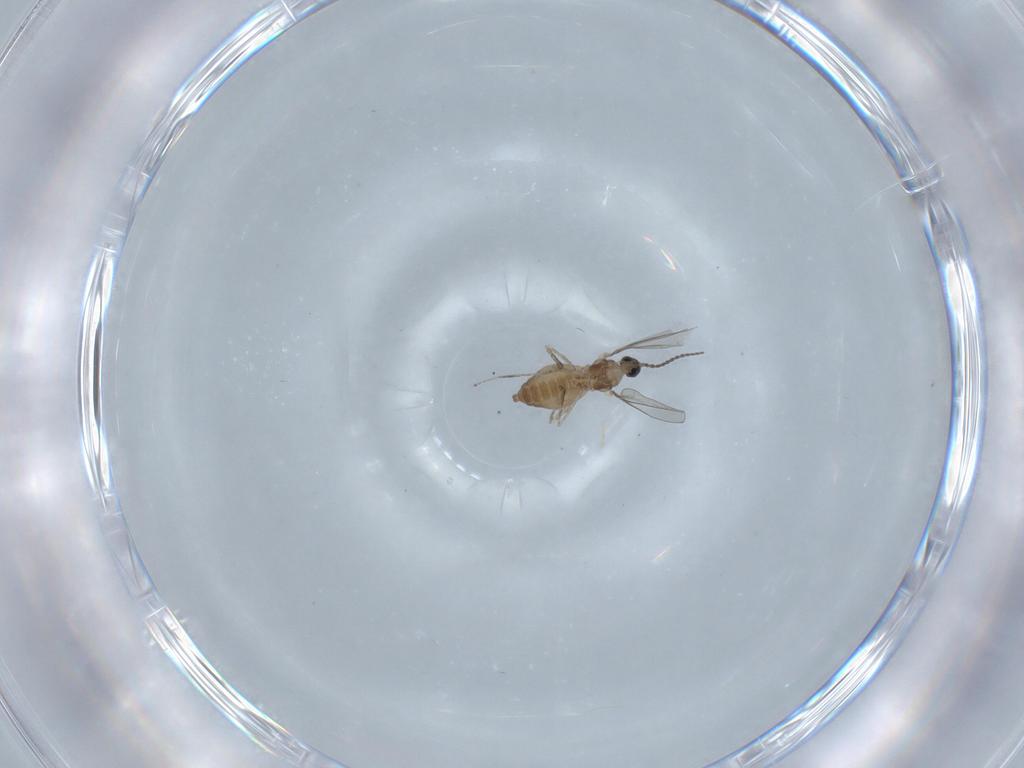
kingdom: Animalia
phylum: Arthropoda
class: Insecta
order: Diptera
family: Cecidomyiidae
